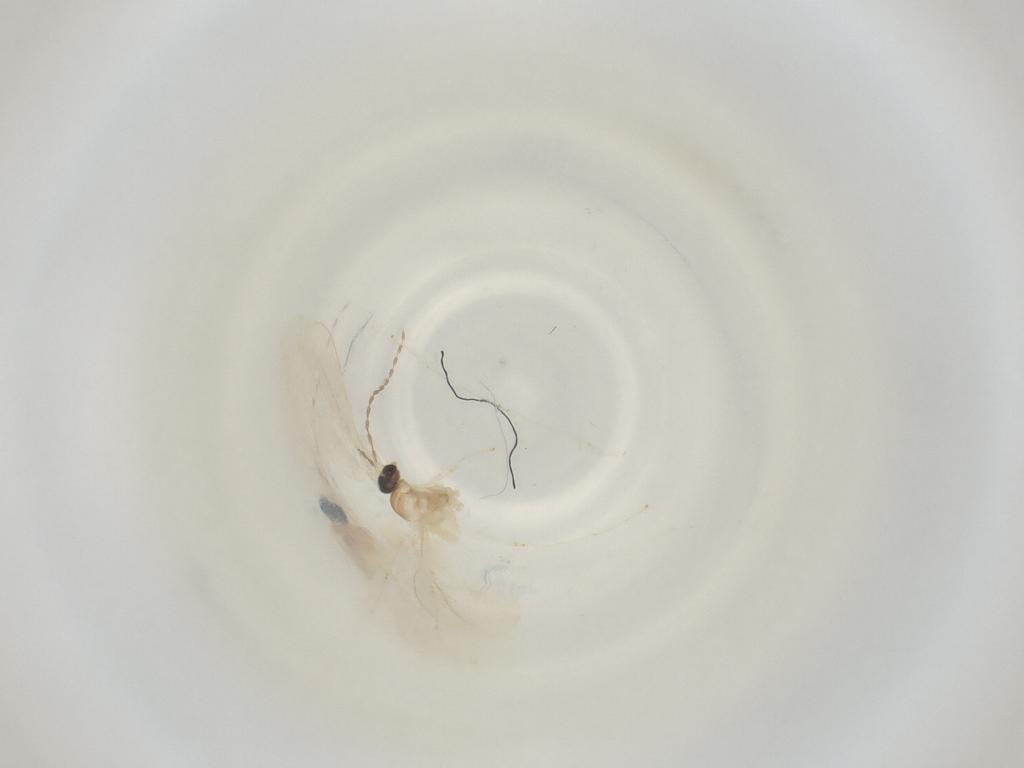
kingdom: Animalia
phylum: Arthropoda
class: Insecta
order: Diptera
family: Cecidomyiidae
